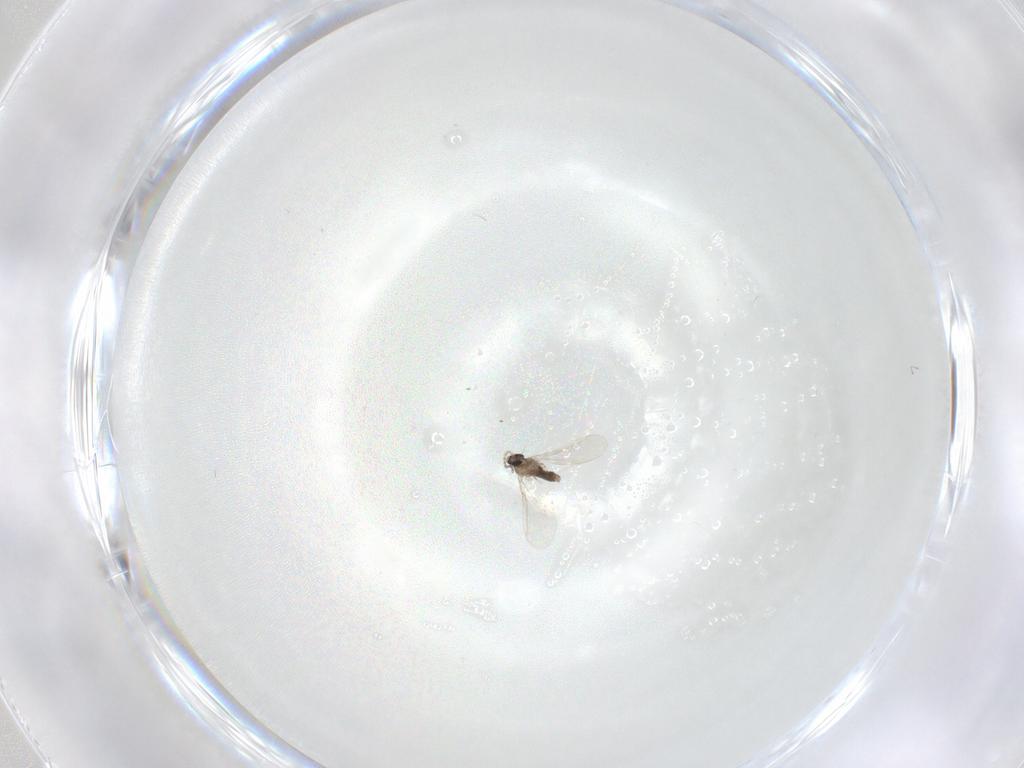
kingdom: Animalia
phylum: Arthropoda
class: Insecta
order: Diptera
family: Cecidomyiidae
